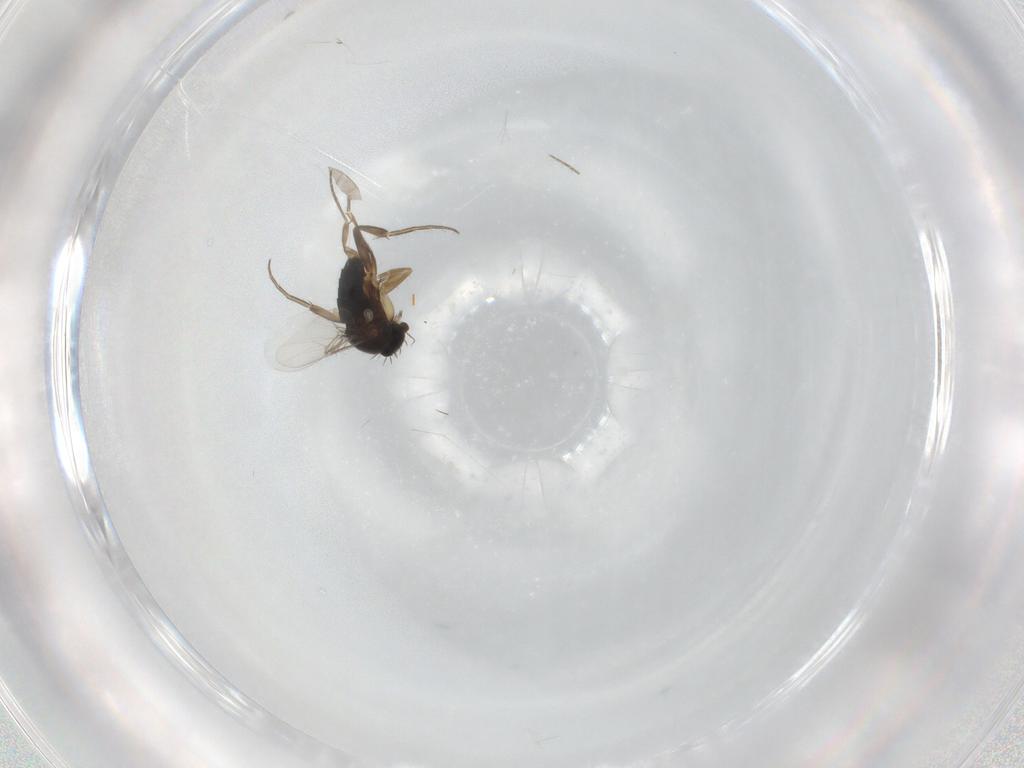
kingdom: Animalia
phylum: Arthropoda
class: Insecta
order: Diptera
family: Phoridae
